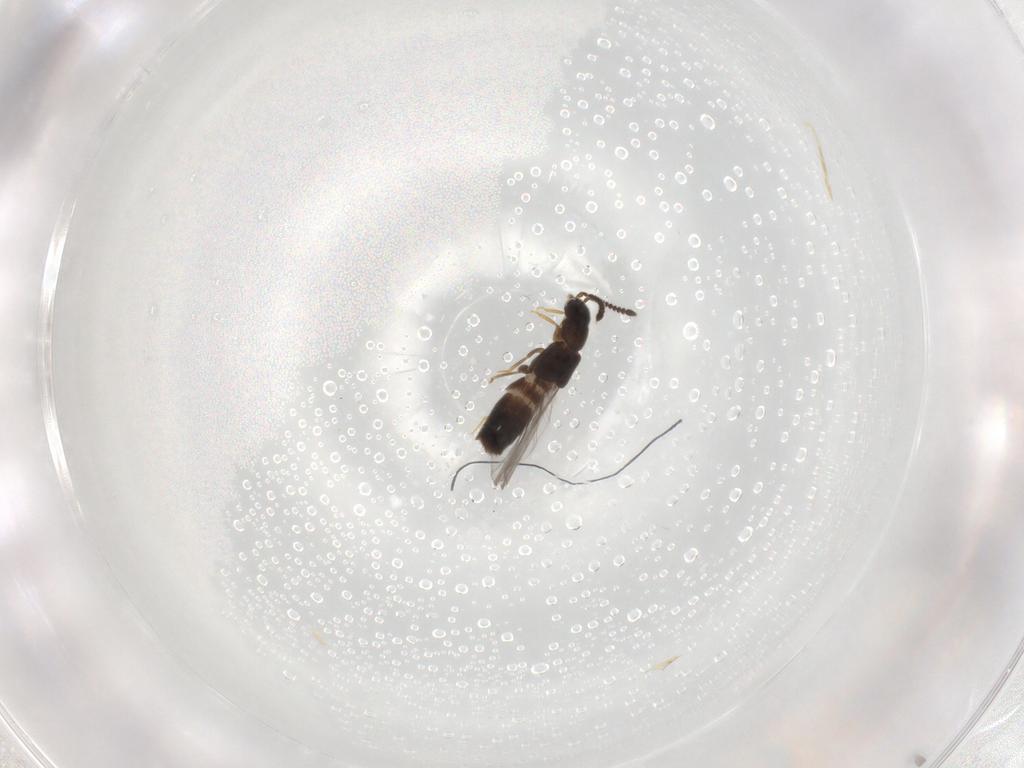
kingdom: Animalia
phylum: Arthropoda
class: Insecta
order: Coleoptera
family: Staphylinidae
